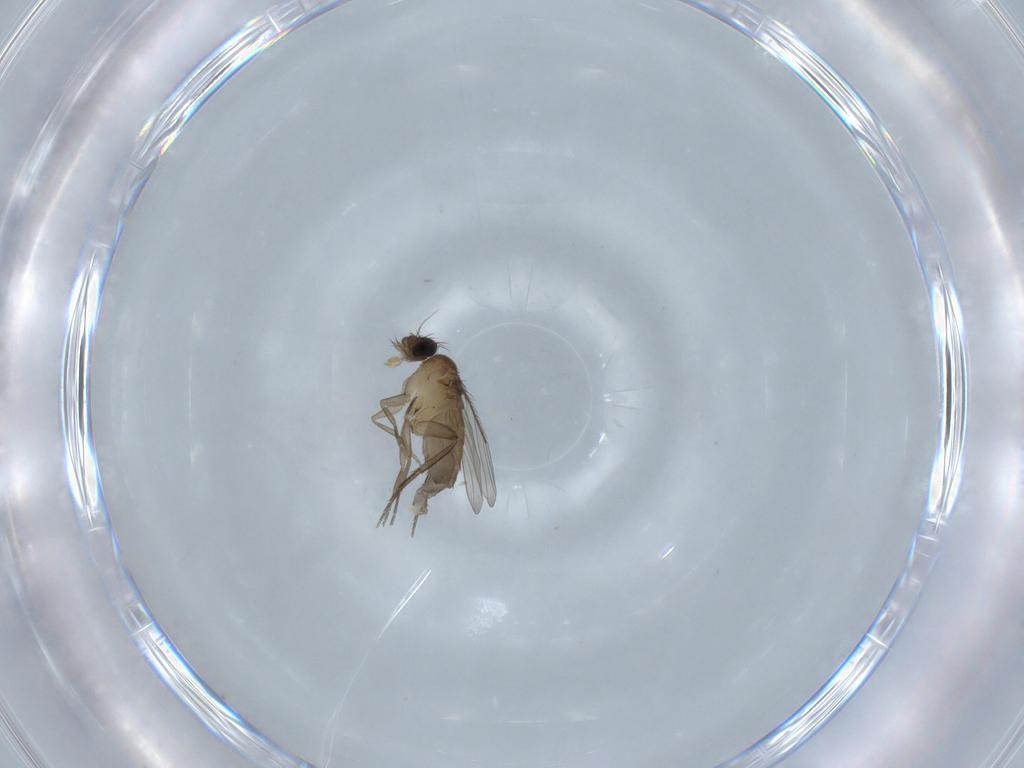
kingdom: Animalia
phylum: Arthropoda
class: Insecta
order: Diptera
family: Phoridae
